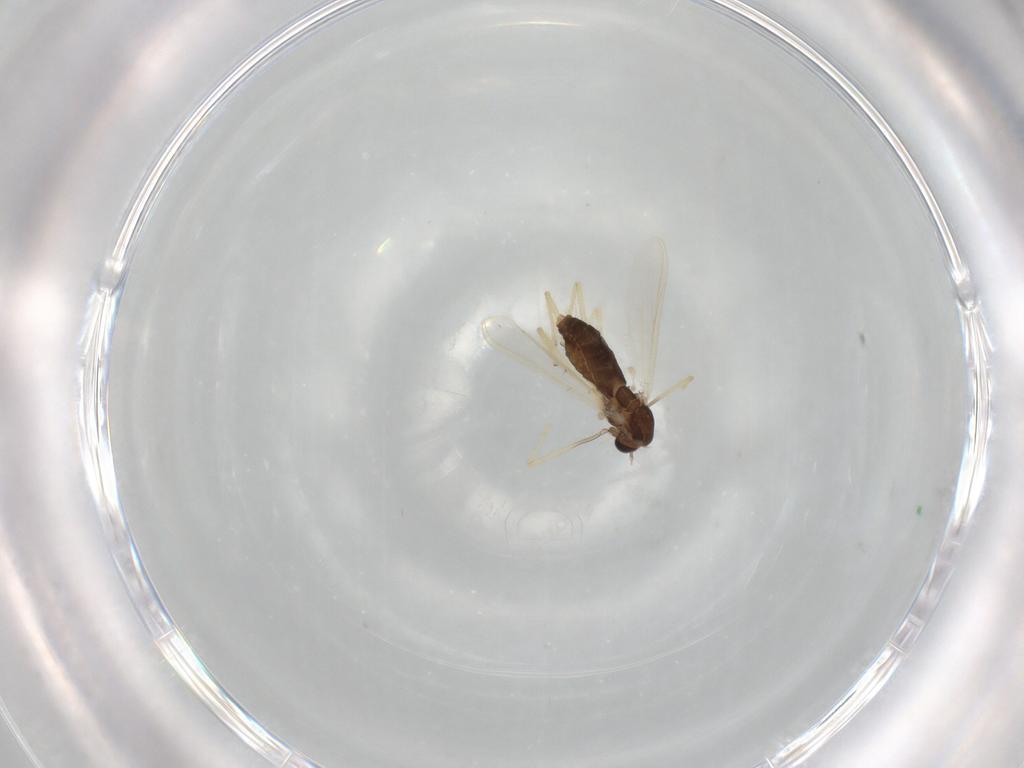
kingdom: Animalia
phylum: Arthropoda
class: Insecta
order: Diptera
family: Chironomidae
